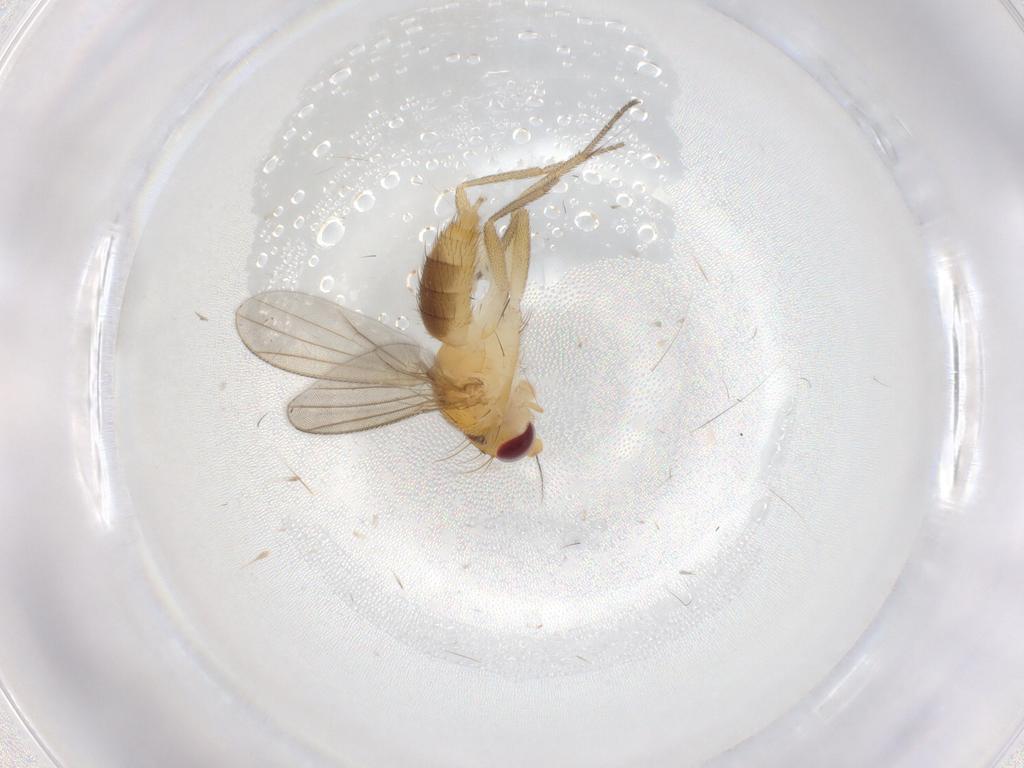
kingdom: Animalia
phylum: Arthropoda
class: Insecta
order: Diptera
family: Clusiidae
